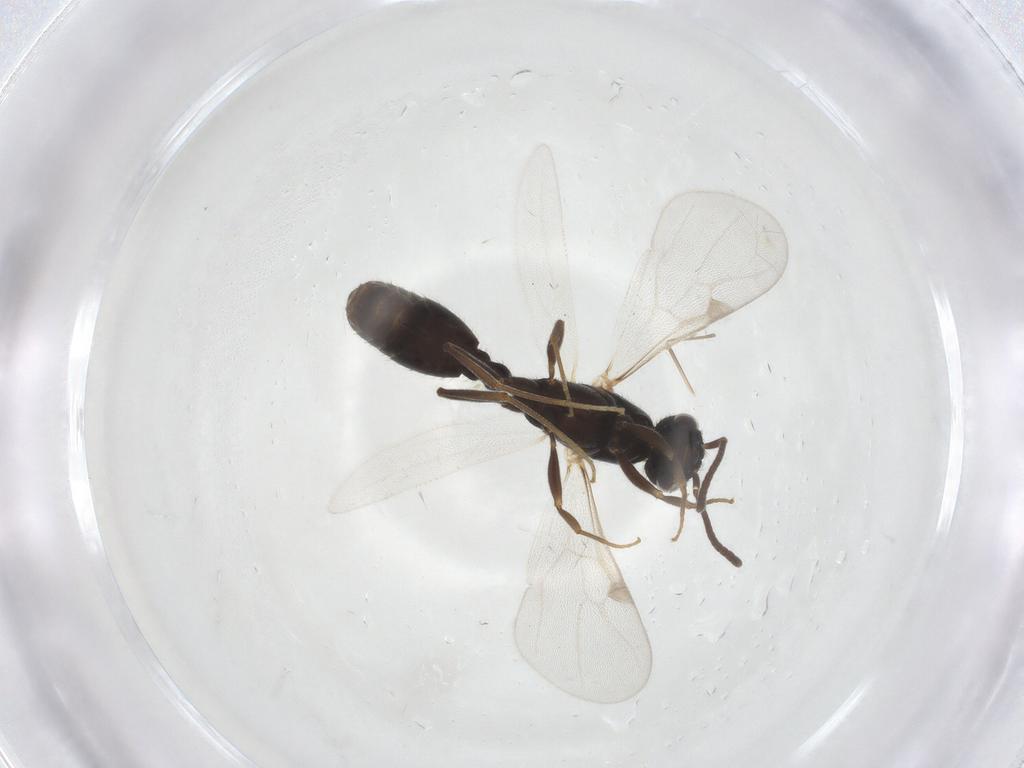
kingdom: Animalia
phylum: Arthropoda
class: Insecta
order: Hymenoptera
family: Formicidae
